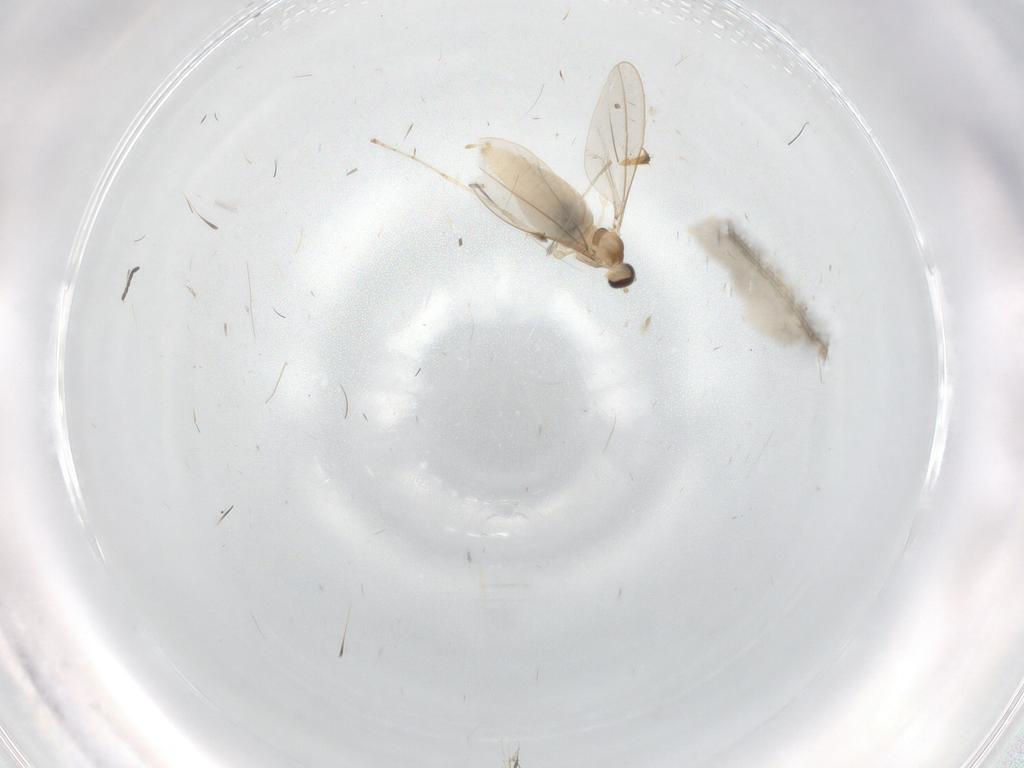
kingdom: Animalia
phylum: Arthropoda
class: Insecta
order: Diptera
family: Cecidomyiidae
